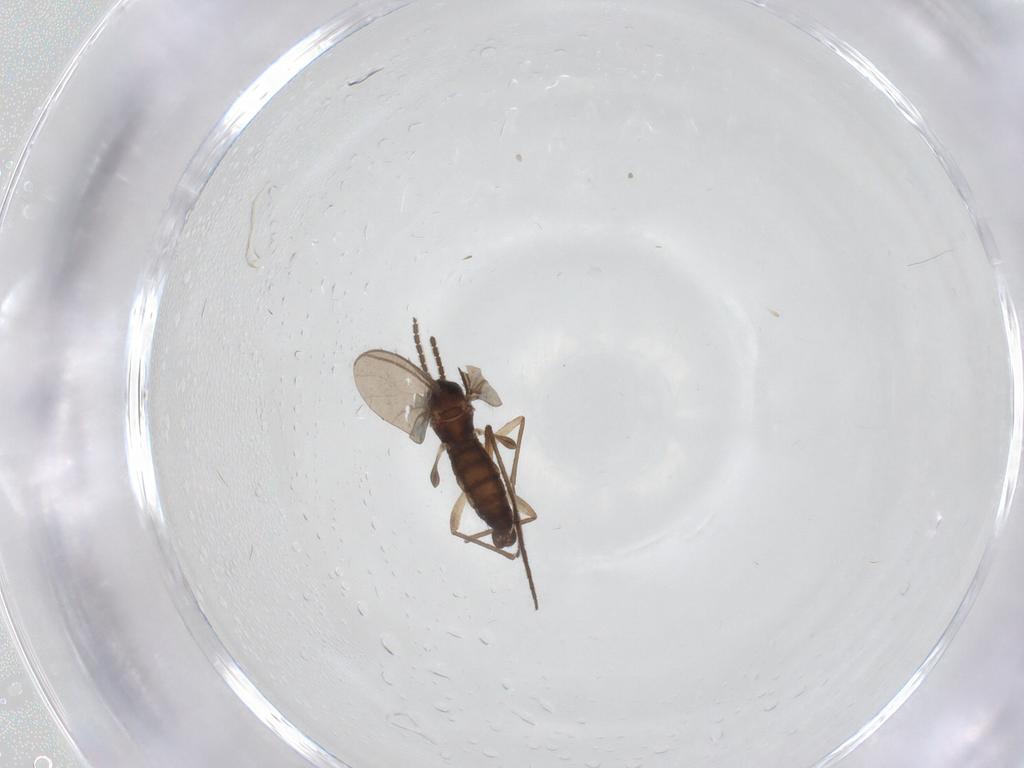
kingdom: Animalia
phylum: Arthropoda
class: Insecta
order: Diptera
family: Sciaridae
